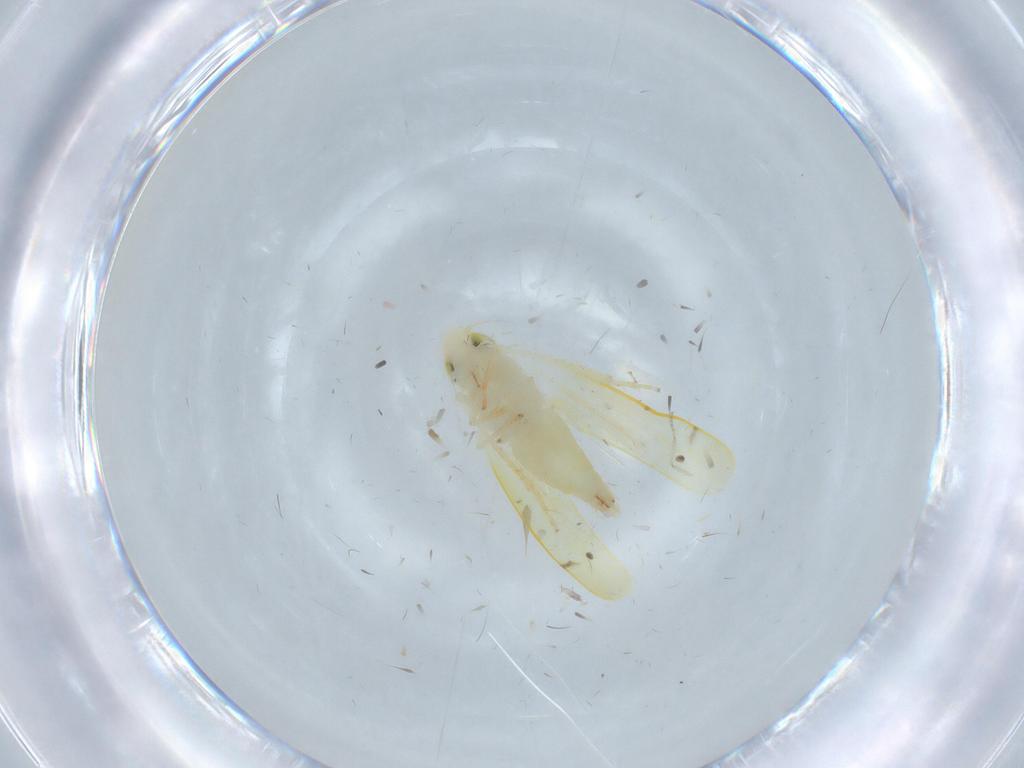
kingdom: Animalia
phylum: Arthropoda
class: Insecta
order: Hemiptera
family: Cicadellidae
